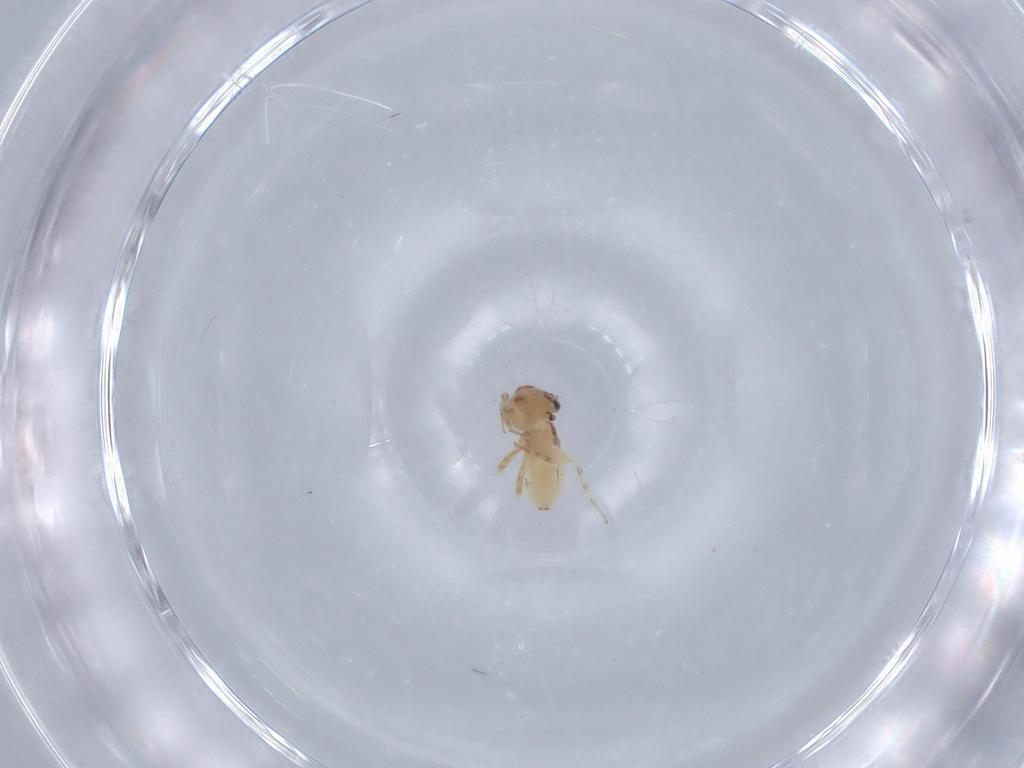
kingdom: Animalia
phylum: Arthropoda
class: Insecta
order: Psocodea
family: Lepidopsocidae
